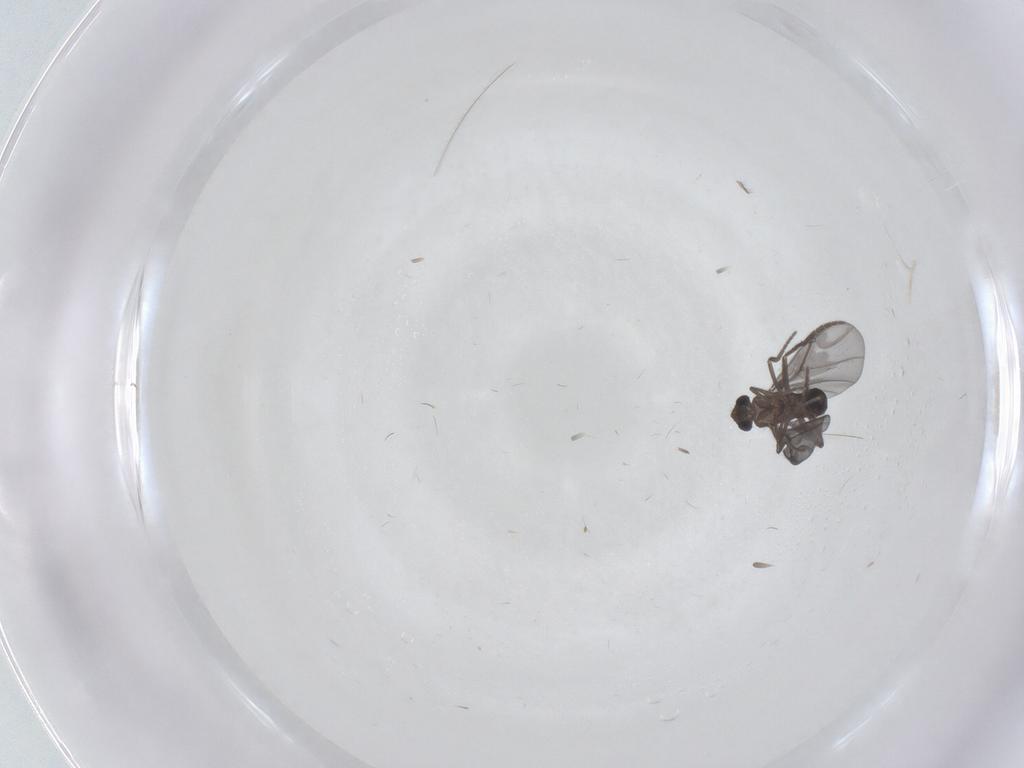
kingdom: Animalia
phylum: Arthropoda
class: Insecta
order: Diptera
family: Phoridae
